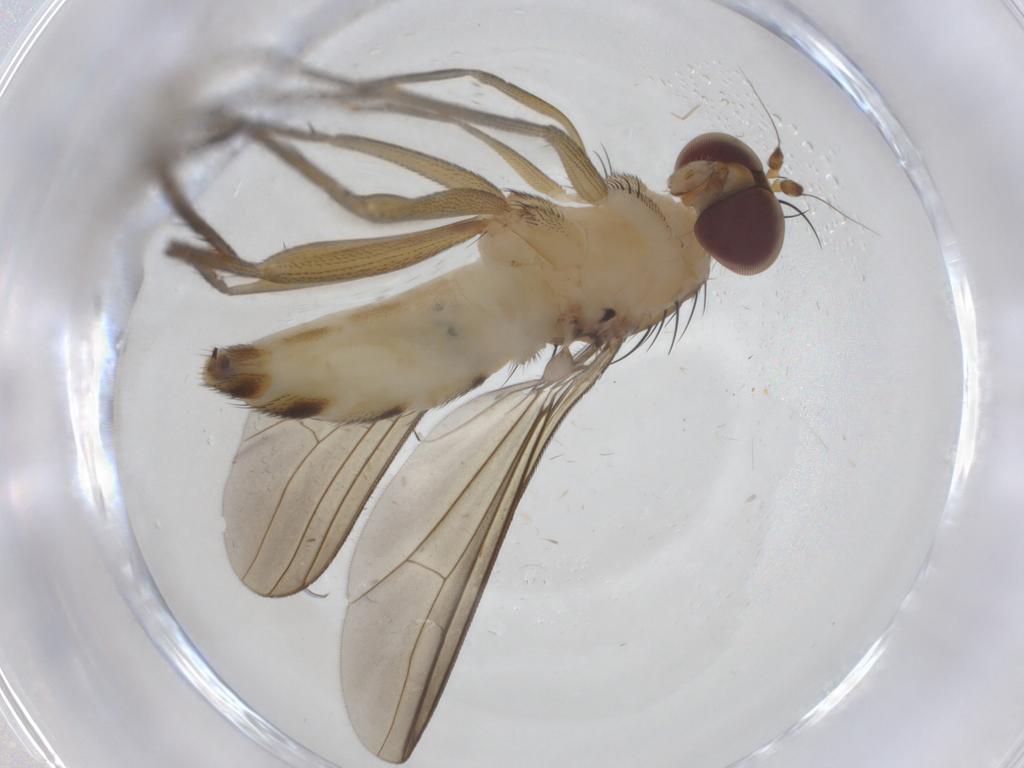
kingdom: Animalia
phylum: Arthropoda
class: Insecta
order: Diptera
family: Dolichopodidae
